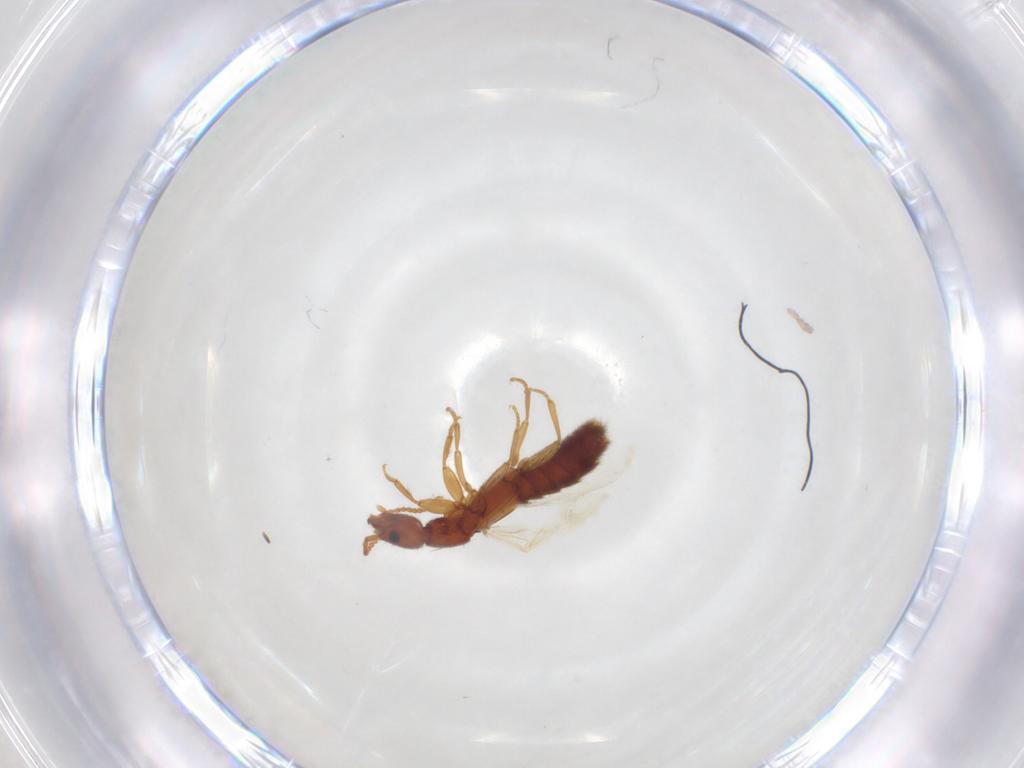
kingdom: Animalia
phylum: Arthropoda
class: Insecta
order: Coleoptera
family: Staphylinidae
